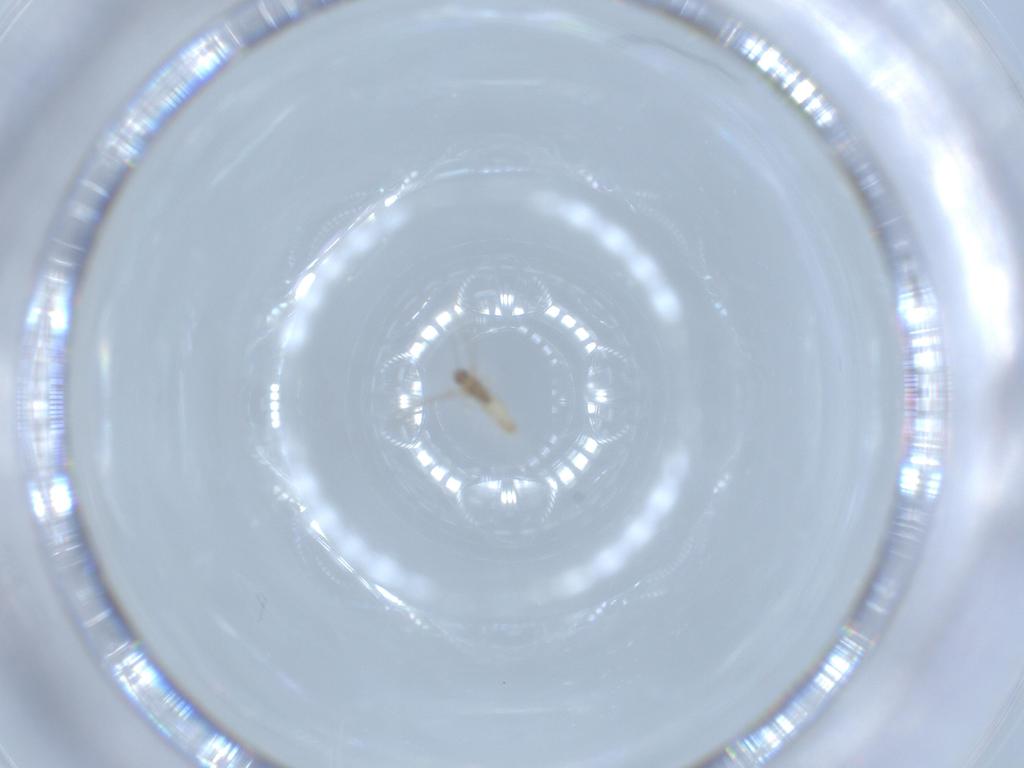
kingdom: Animalia
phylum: Arthropoda
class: Insecta
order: Diptera
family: Cecidomyiidae
